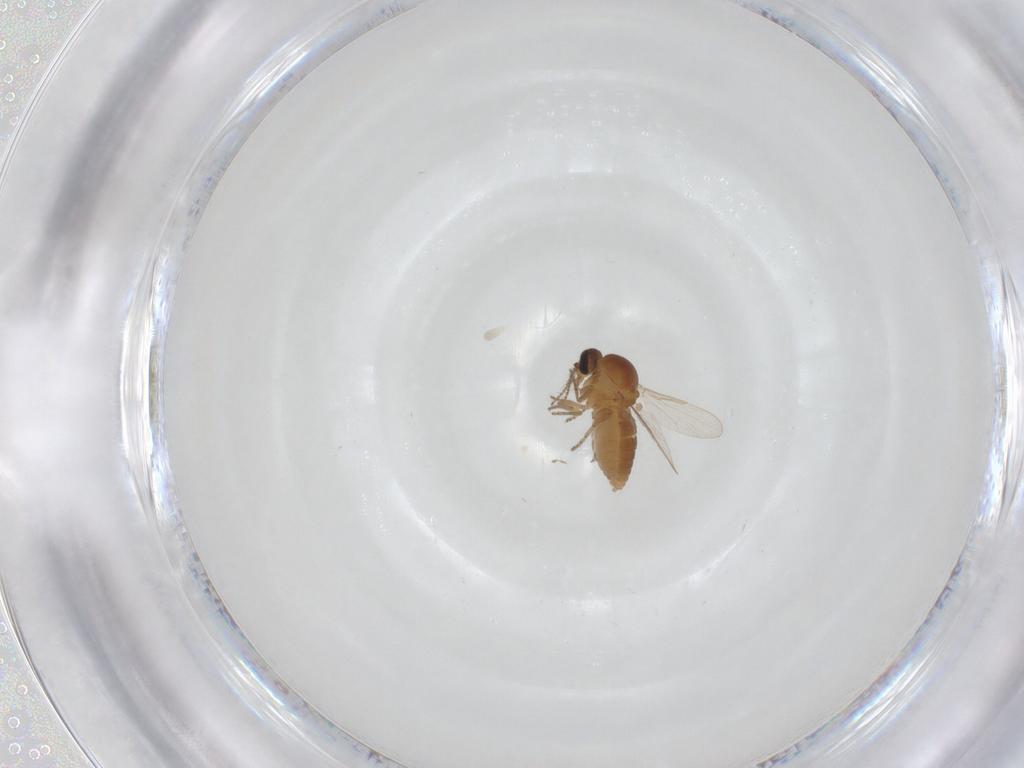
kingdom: Animalia
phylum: Arthropoda
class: Insecta
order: Diptera
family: Ceratopogonidae
